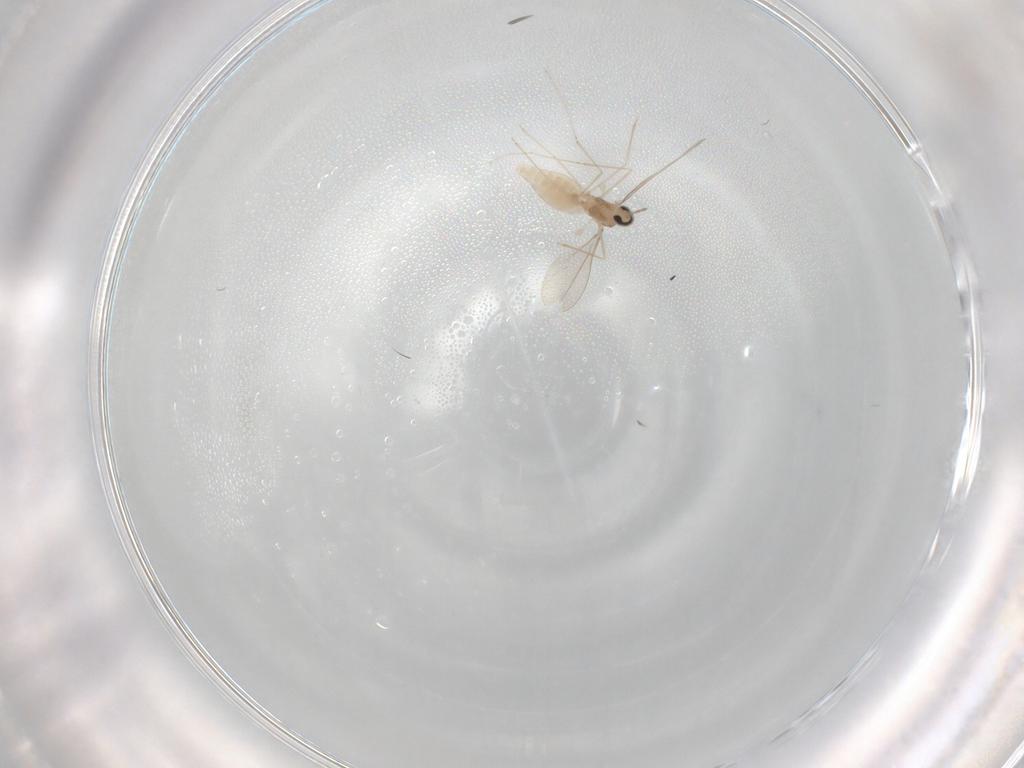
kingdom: Animalia
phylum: Arthropoda
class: Insecta
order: Diptera
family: Cecidomyiidae
